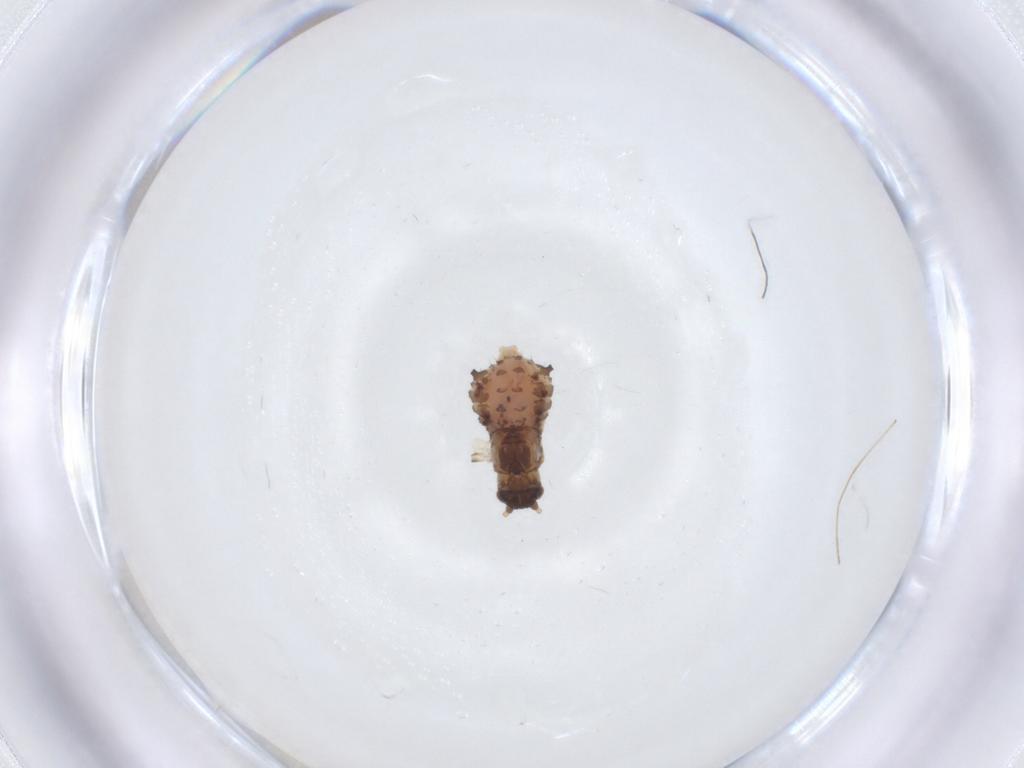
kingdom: Animalia
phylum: Arthropoda
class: Insecta
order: Hemiptera
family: Aphididae
